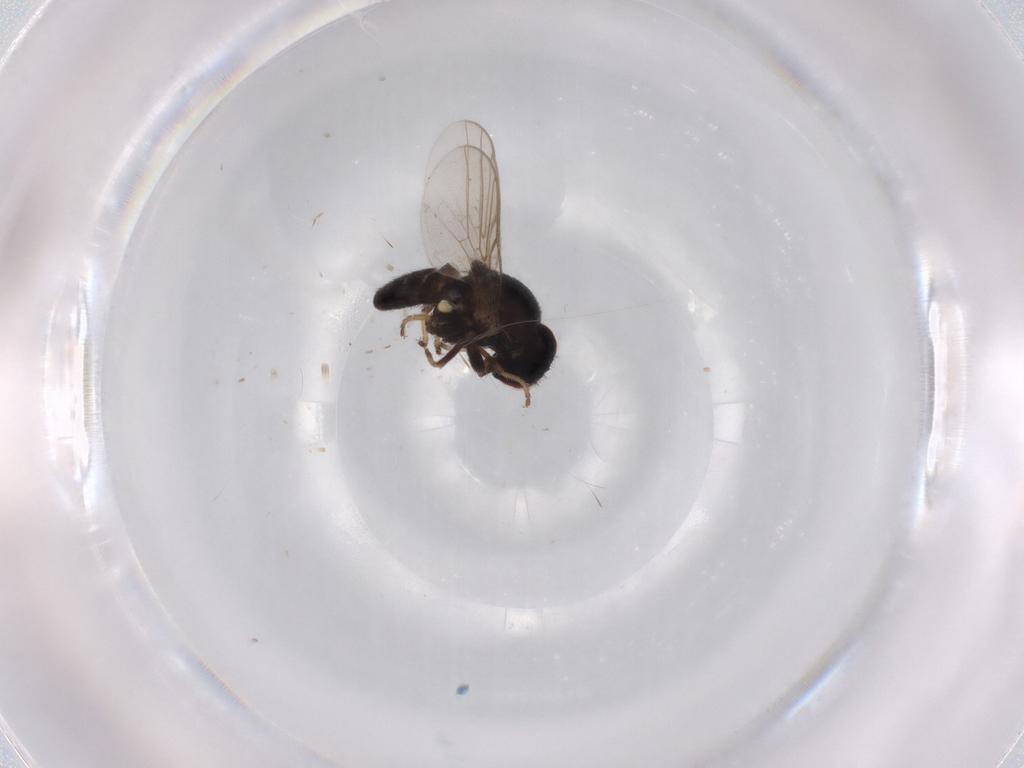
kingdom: Animalia
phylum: Arthropoda
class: Insecta
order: Diptera
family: Chloropidae
